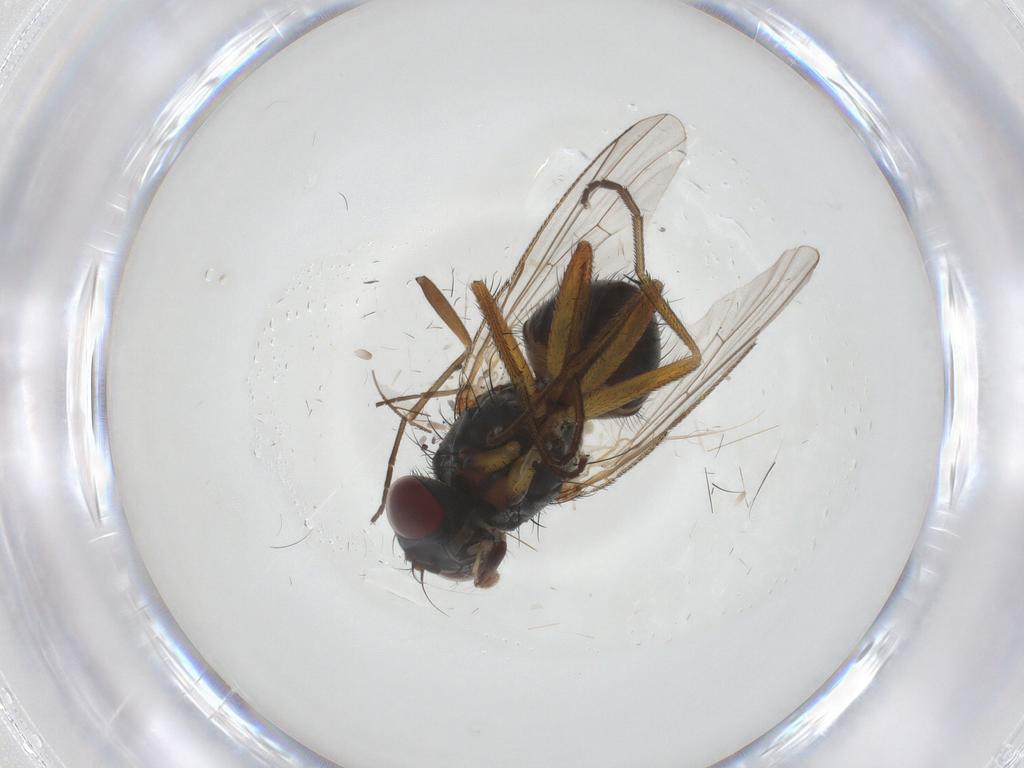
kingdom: Animalia
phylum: Arthropoda
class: Insecta
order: Diptera
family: Muscidae
